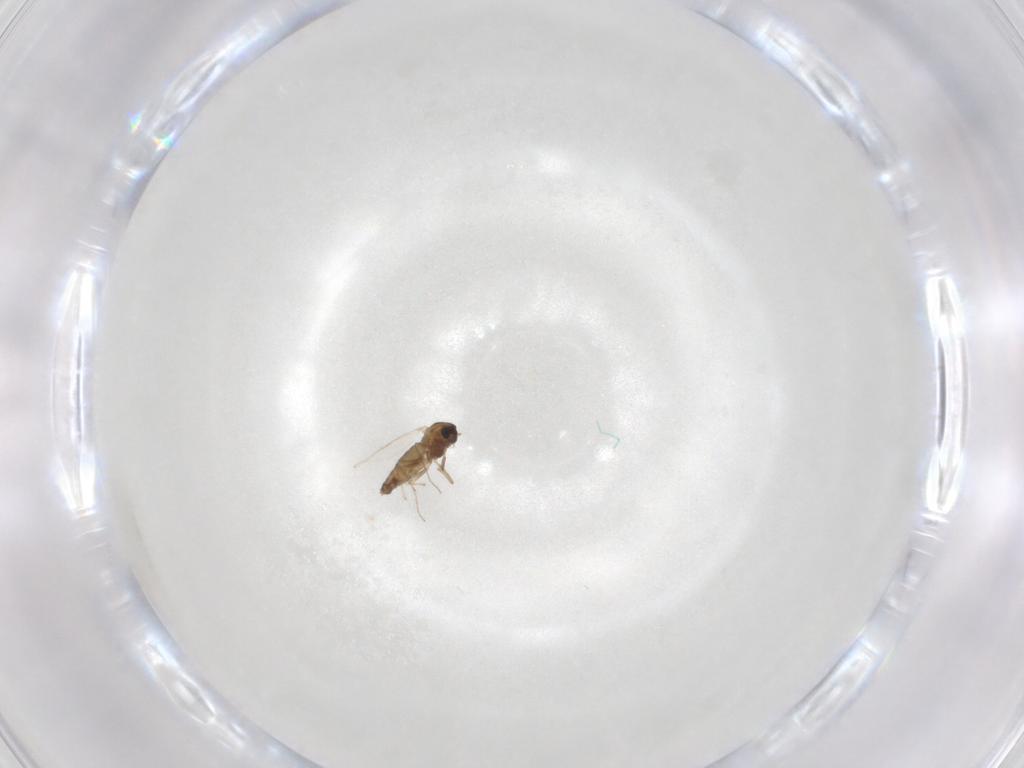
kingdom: Animalia
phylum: Arthropoda
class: Insecta
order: Diptera
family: Chironomidae
